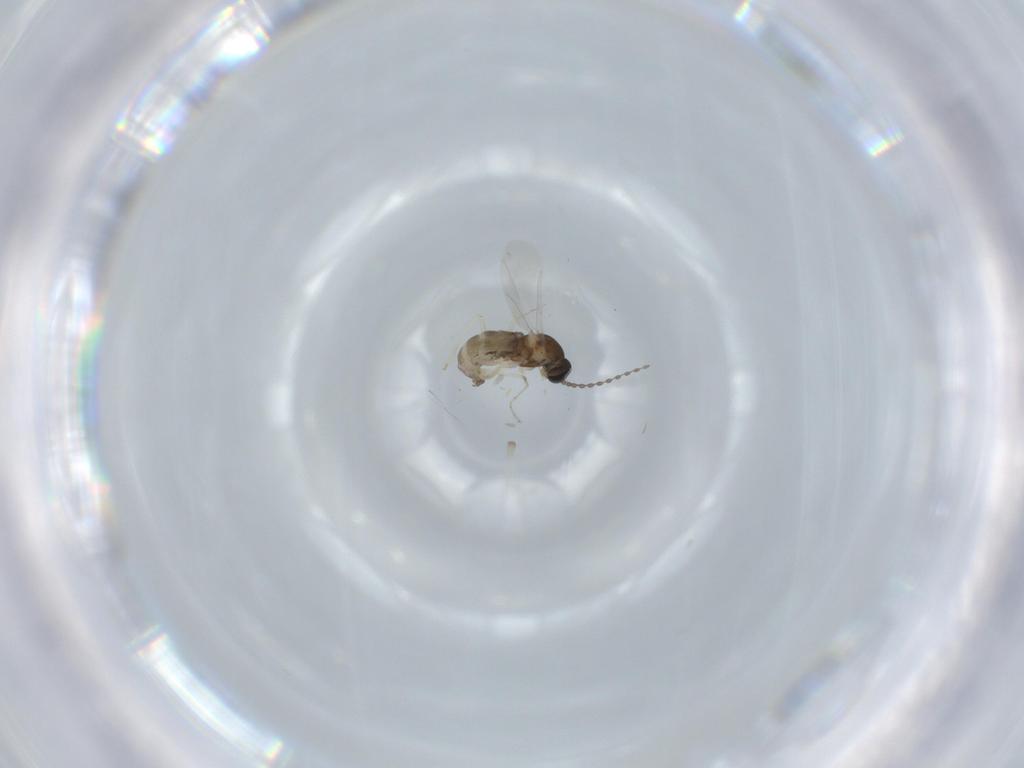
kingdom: Animalia
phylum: Arthropoda
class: Insecta
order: Diptera
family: Cecidomyiidae
